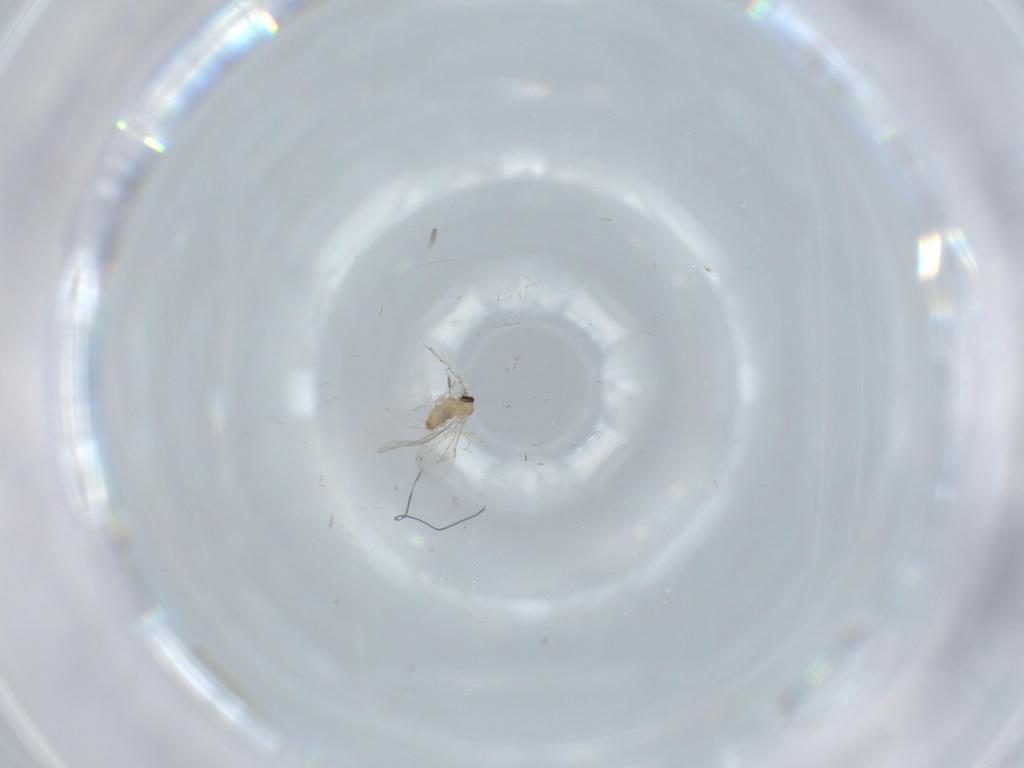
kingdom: Animalia
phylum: Arthropoda
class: Insecta
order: Diptera
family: Cecidomyiidae
